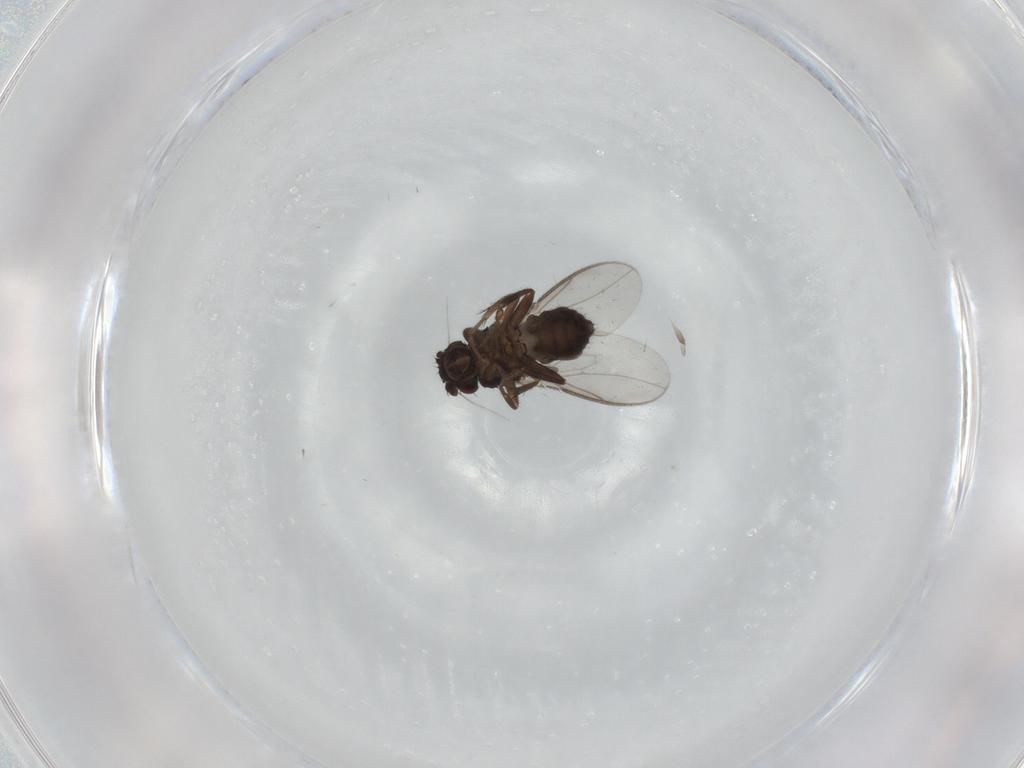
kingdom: Animalia
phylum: Arthropoda
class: Insecta
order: Diptera
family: Sphaeroceridae
